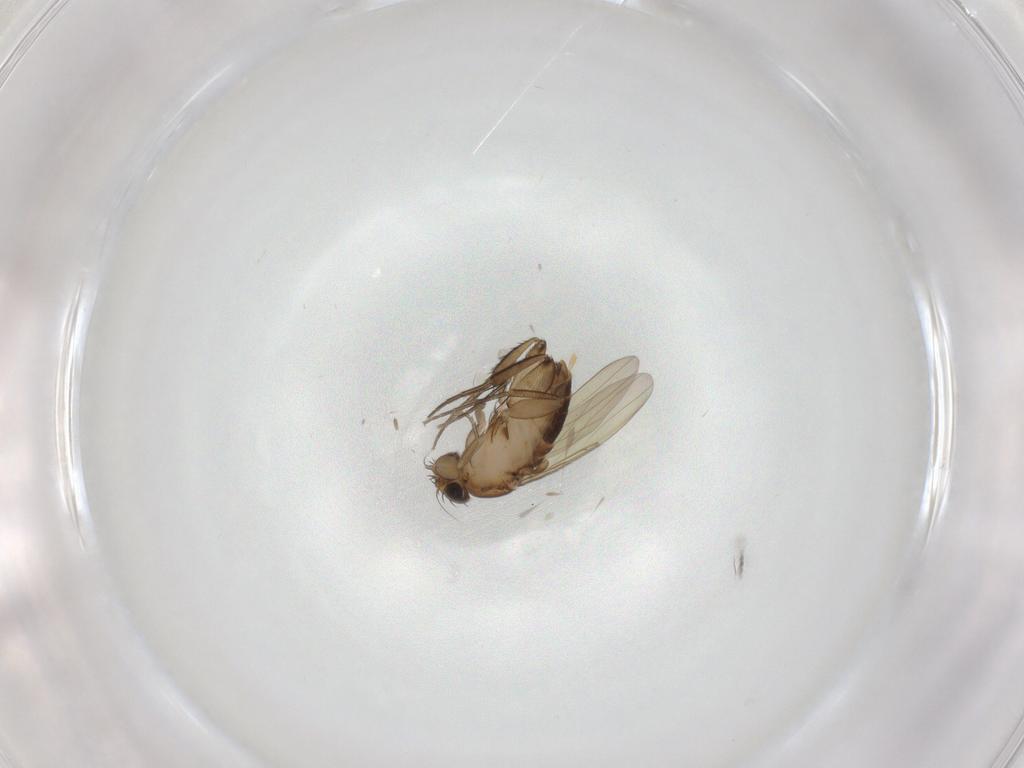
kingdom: Animalia
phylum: Arthropoda
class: Insecta
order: Diptera
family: Phoridae
